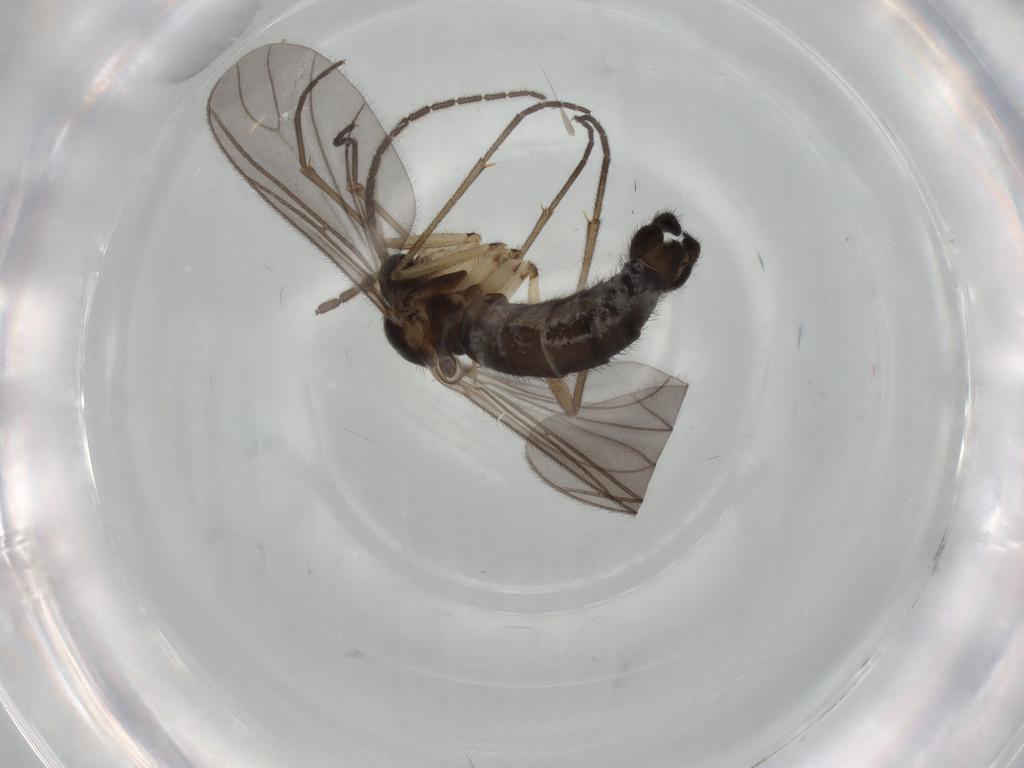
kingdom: Animalia
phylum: Arthropoda
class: Insecta
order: Diptera
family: Sciaridae
